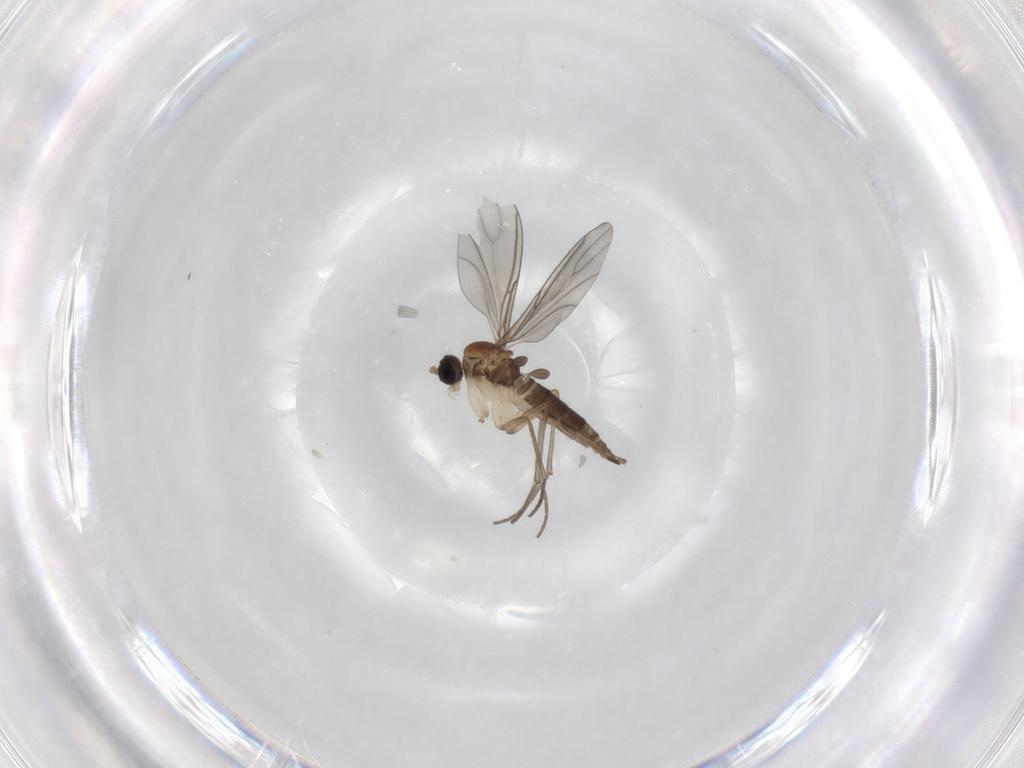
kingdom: Animalia
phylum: Arthropoda
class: Insecta
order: Diptera
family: Sciaridae
